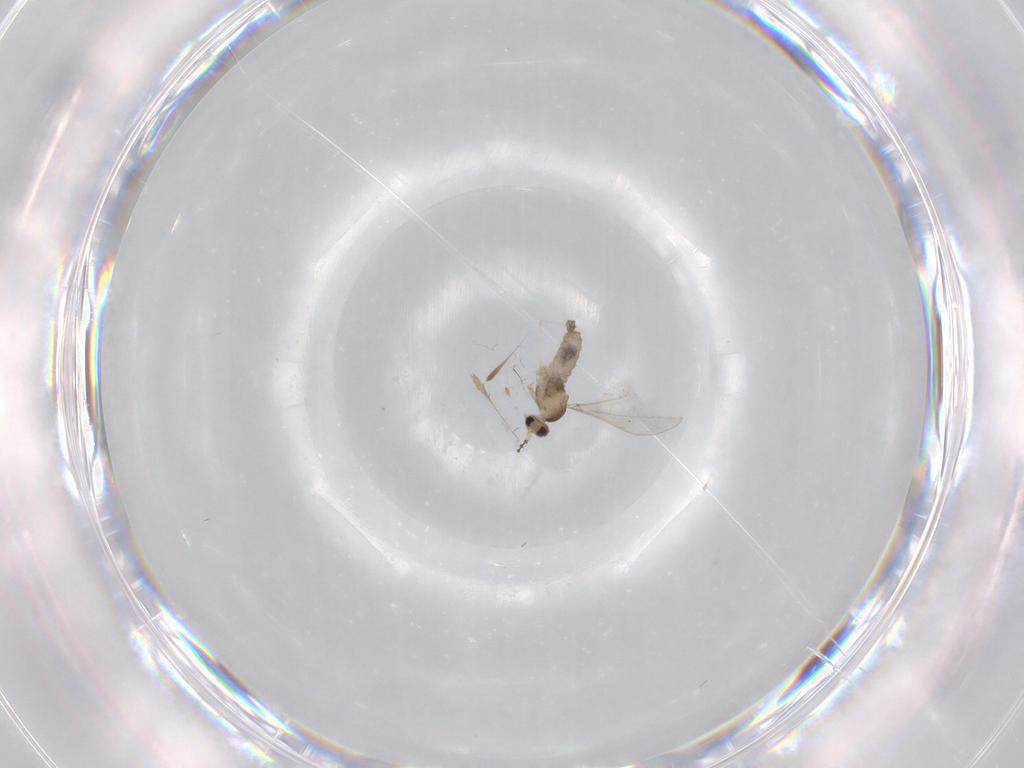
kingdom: Animalia
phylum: Arthropoda
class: Insecta
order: Diptera
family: Cecidomyiidae
